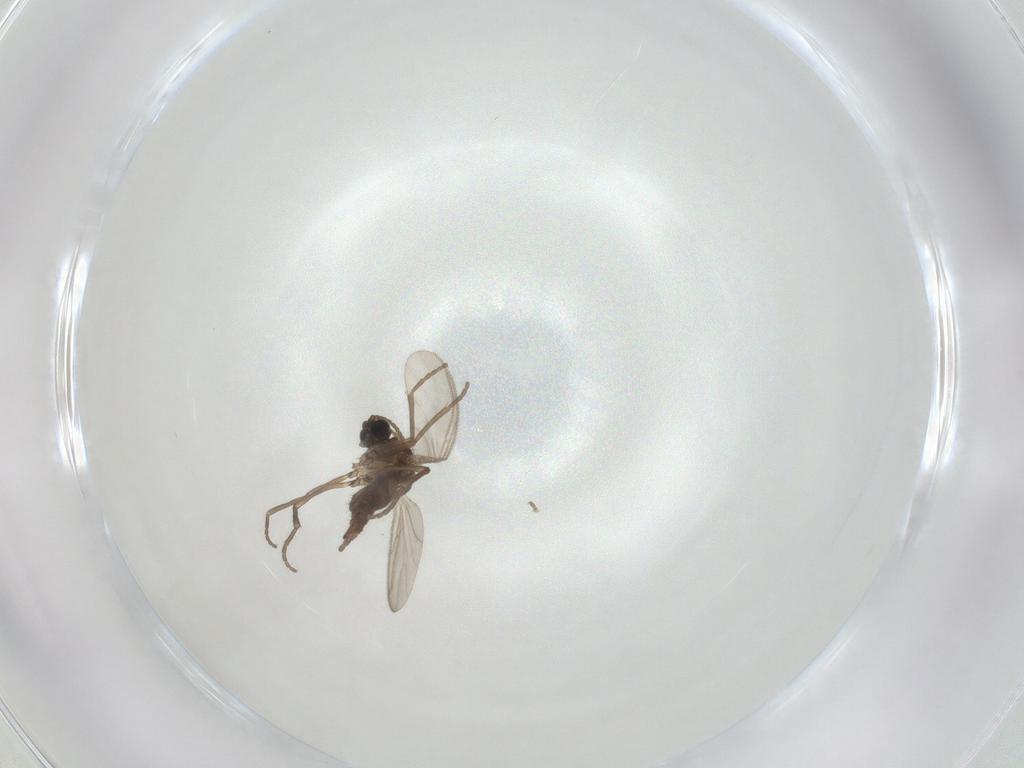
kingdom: Animalia
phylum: Arthropoda
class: Insecta
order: Diptera
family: Sciaridae
